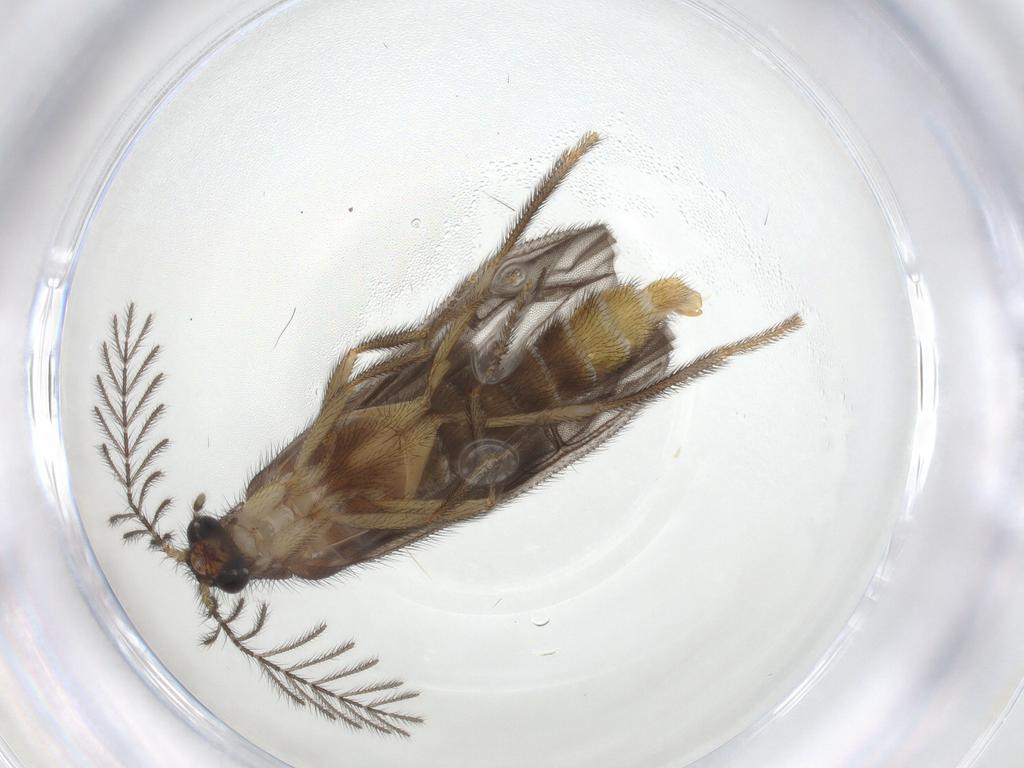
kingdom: Animalia
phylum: Arthropoda
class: Insecta
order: Coleoptera
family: Phengodidae
